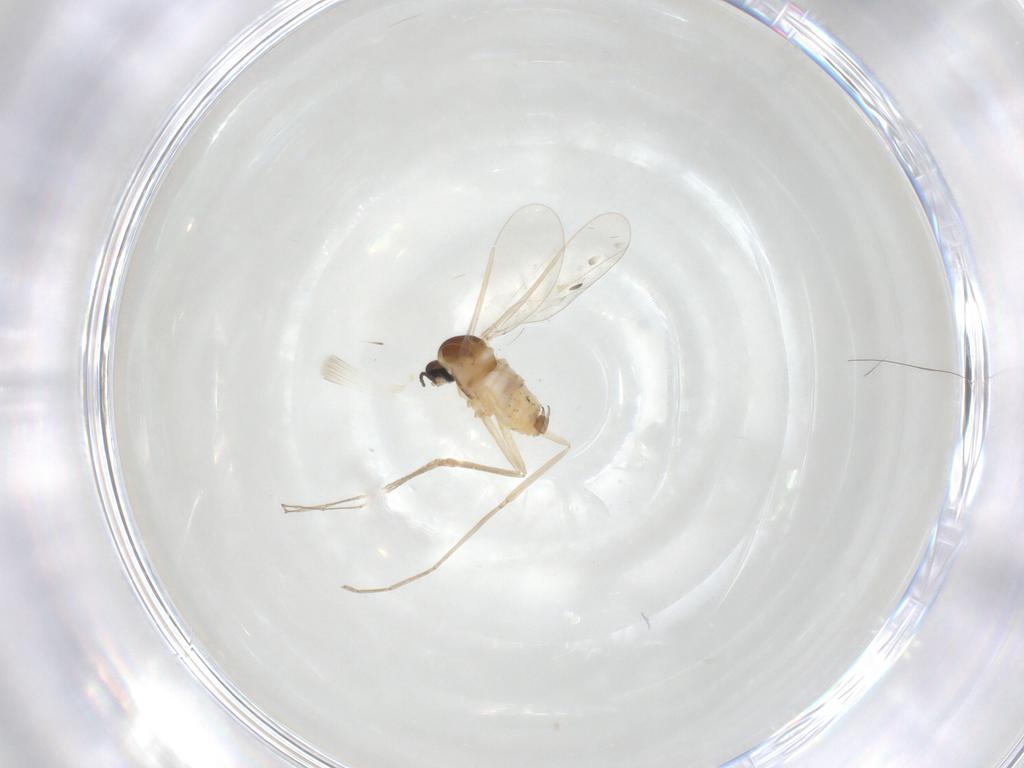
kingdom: Animalia
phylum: Arthropoda
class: Insecta
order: Diptera
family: Cecidomyiidae
